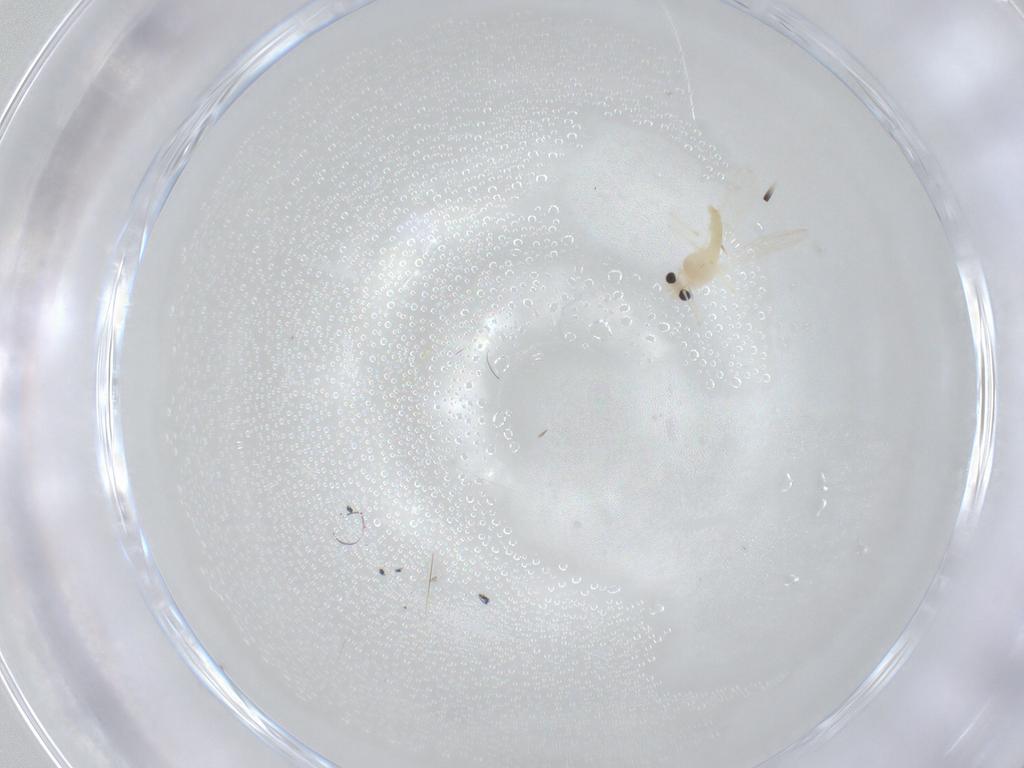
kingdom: Animalia
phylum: Arthropoda
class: Insecta
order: Diptera
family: Chironomidae
